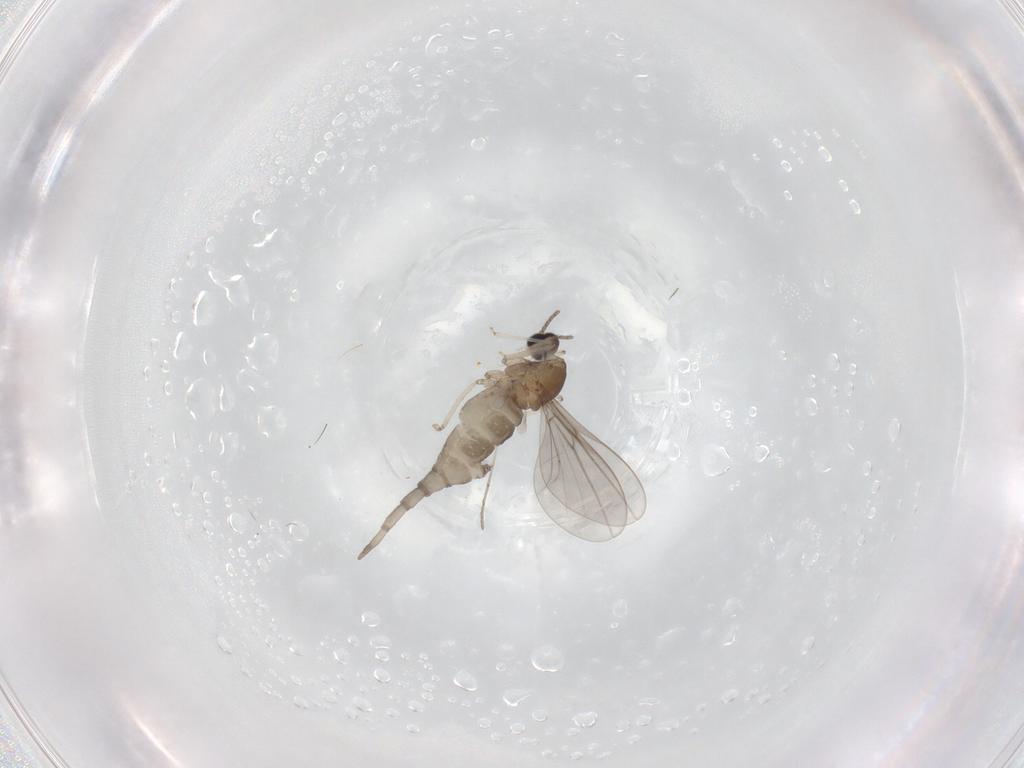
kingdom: Animalia
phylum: Arthropoda
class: Insecta
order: Diptera
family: Cecidomyiidae
